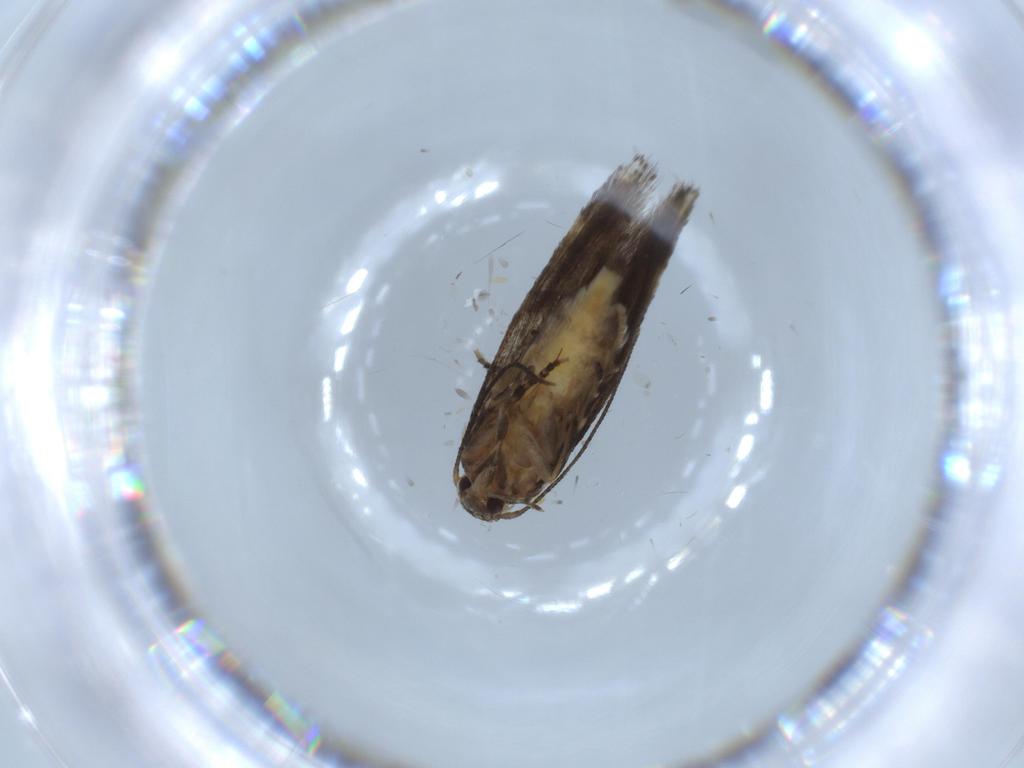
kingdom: Animalia
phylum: Arthropoda
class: Insecta
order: Lepidoptera
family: Elachistidae
